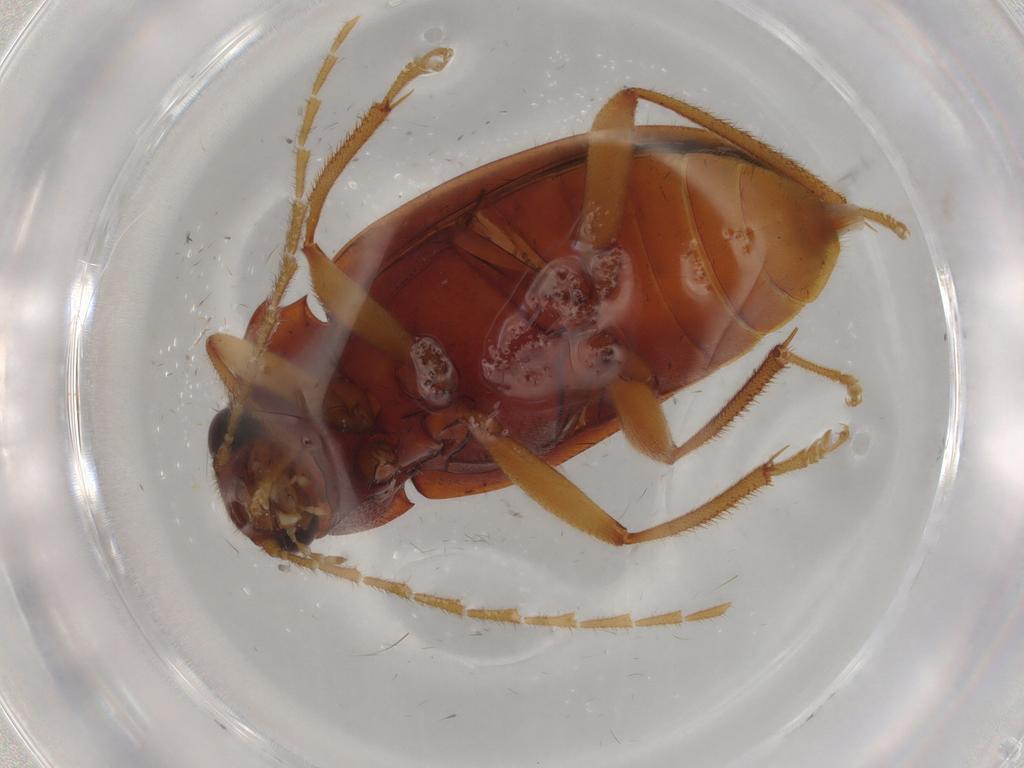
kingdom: Animalia
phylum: Arthropoda
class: Insecta
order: Coleoptera
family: Ptilodactylidae
